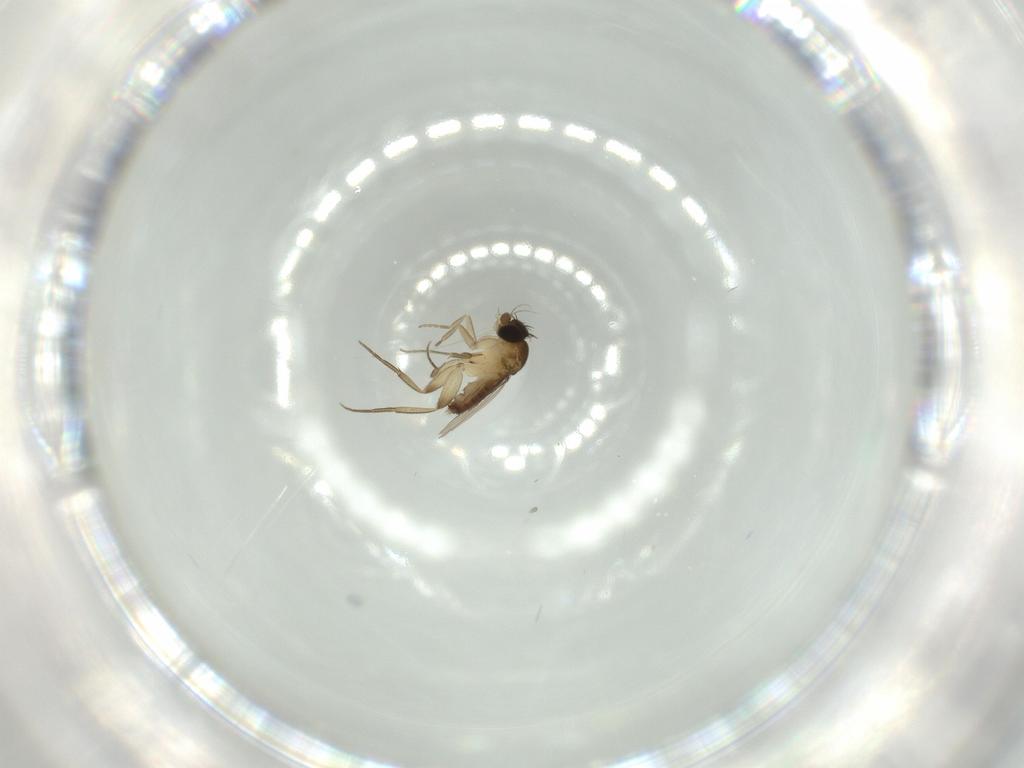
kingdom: Animalia
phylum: Arthropoda
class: Insecta
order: Diptera
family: Phoridae
